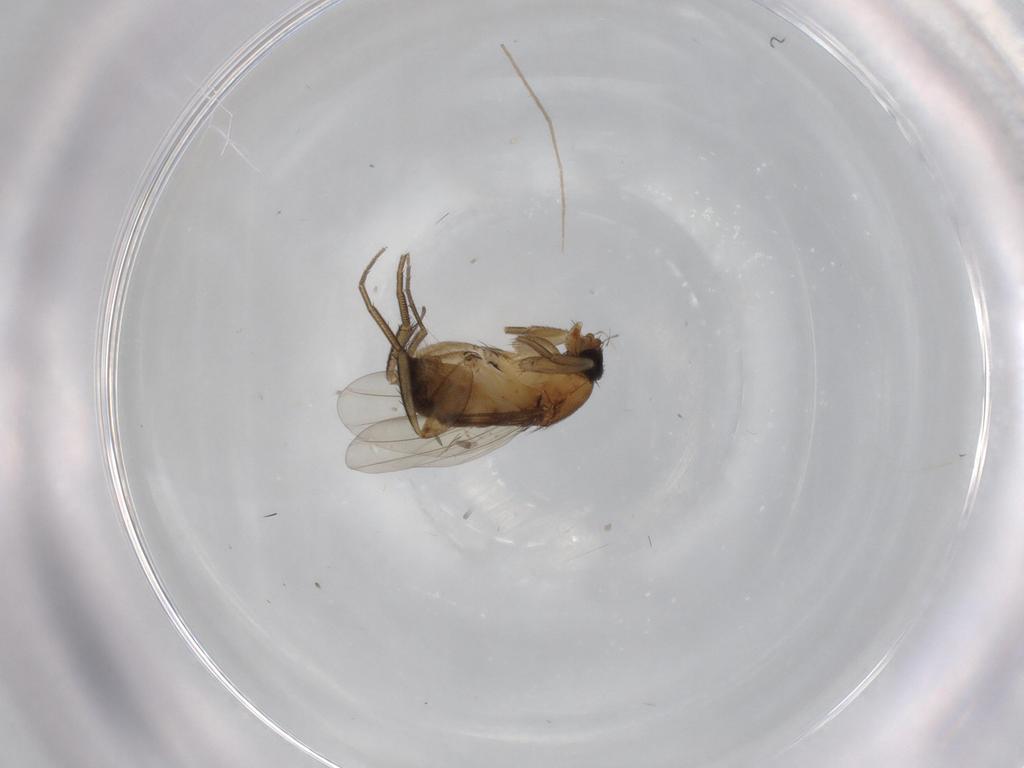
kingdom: Animalia
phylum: Arthropoda
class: Insecta
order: Diptera
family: Phoridae
